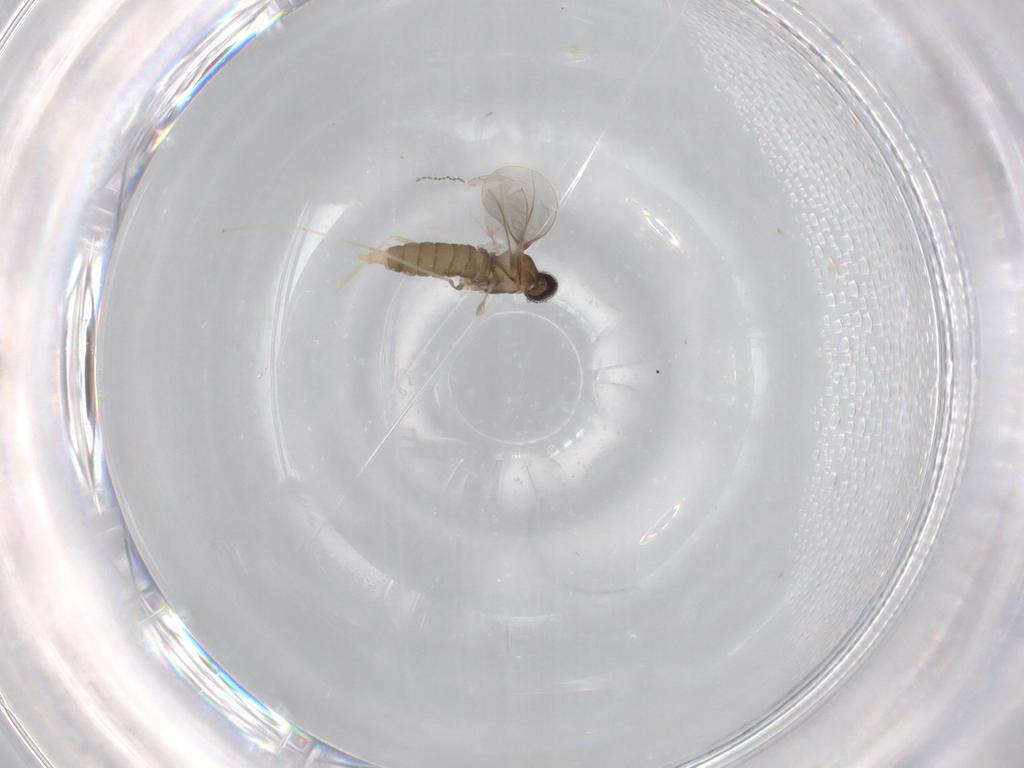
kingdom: Animalia
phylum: Arthropoda
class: Insecta
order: Diptera
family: Cecidomyiidae
